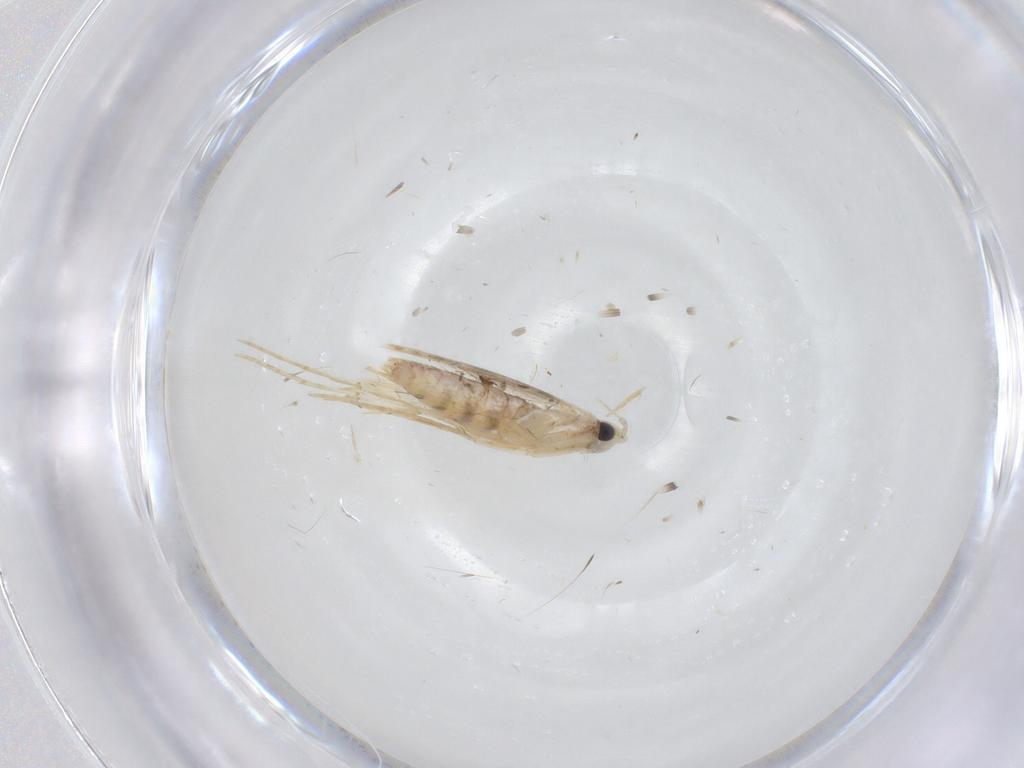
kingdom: Animalia
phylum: Arthropoda
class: Insecta
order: Lepidoptera
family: Tineidae
